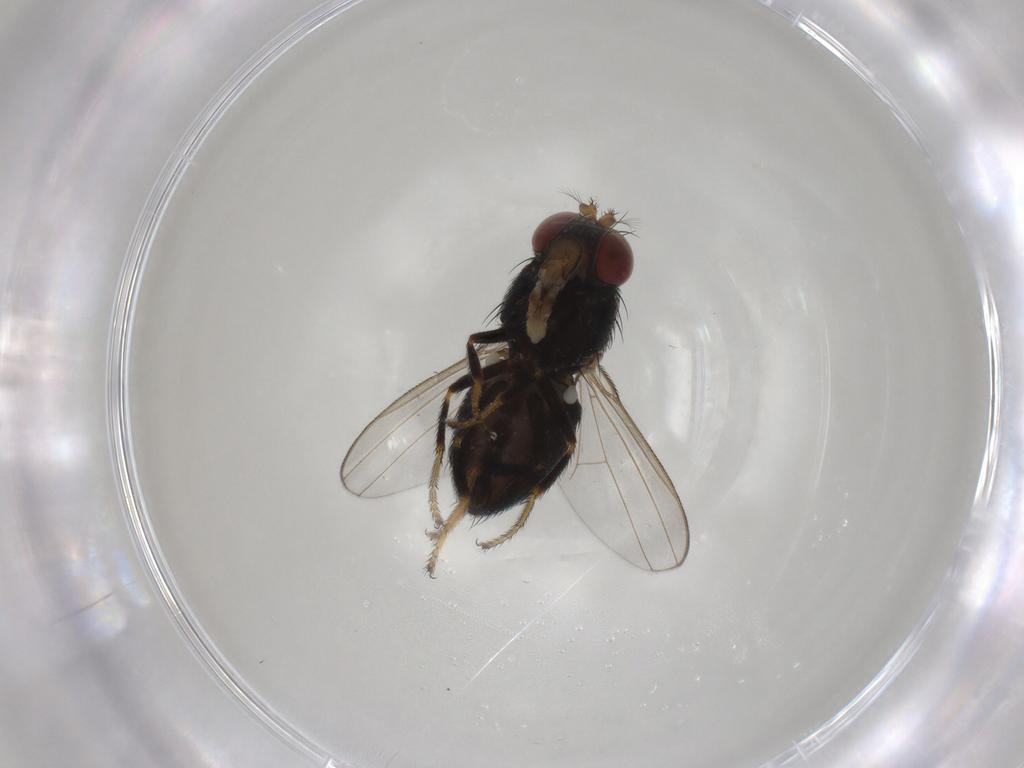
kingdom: Animalia
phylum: Arthropoda
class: Insecta
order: Diptera
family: Ephydridae
